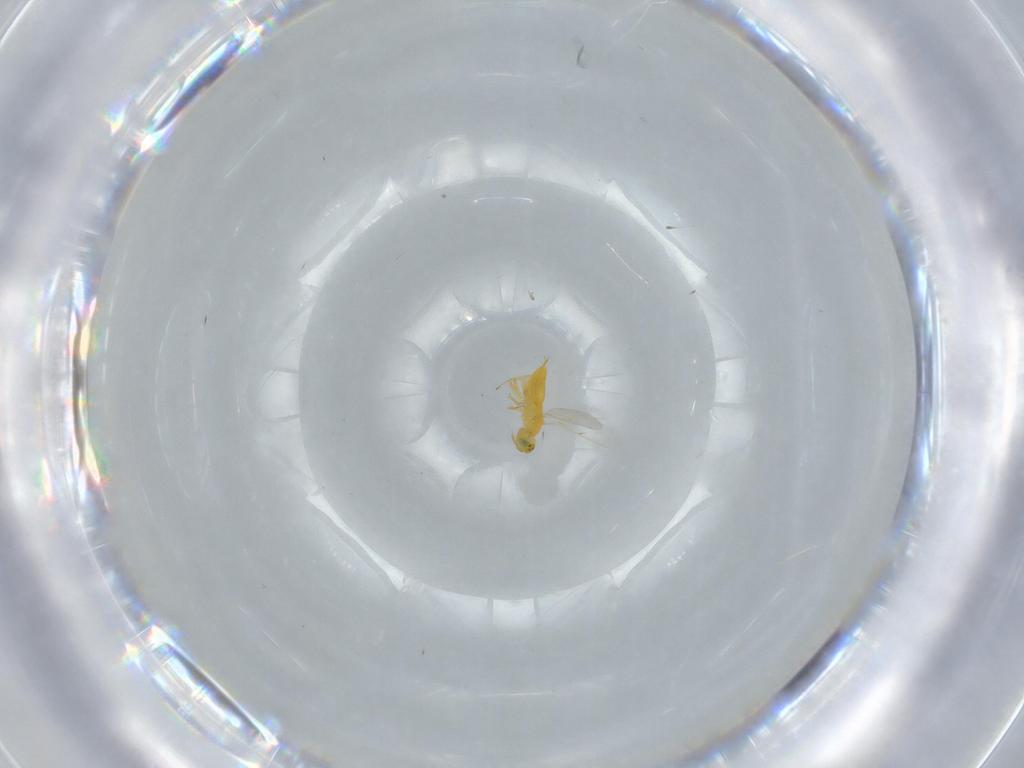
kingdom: Animalia
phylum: Arthropoda
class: Insecta
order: Hymenoptera
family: Aphelinidae
